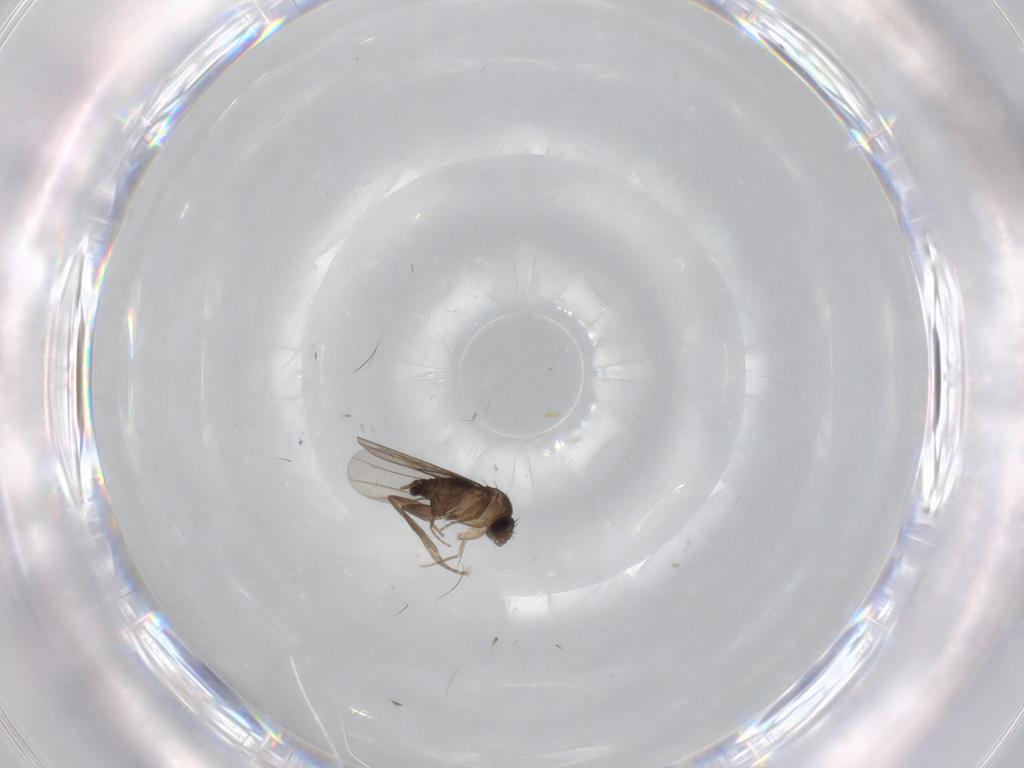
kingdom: Animalia
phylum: Arthropoda
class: Insecta
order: Diptera
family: Phoridae
